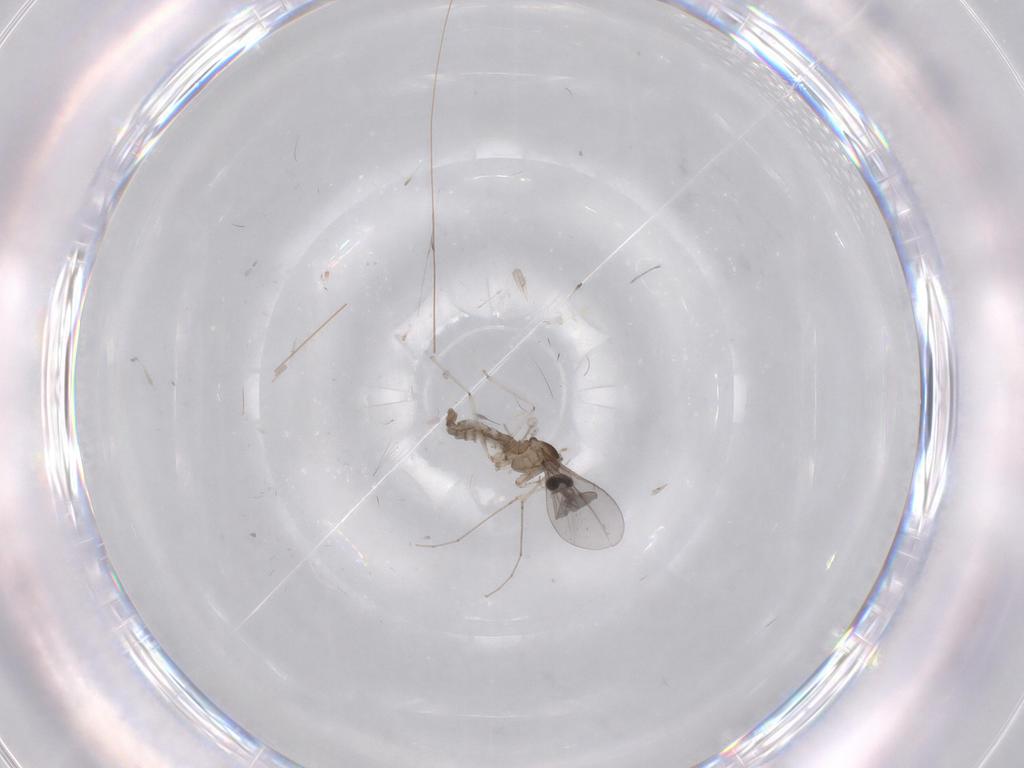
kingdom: Animalia
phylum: Arthropoda
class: Insecta
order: Diptera
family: Cecidomyiidae
